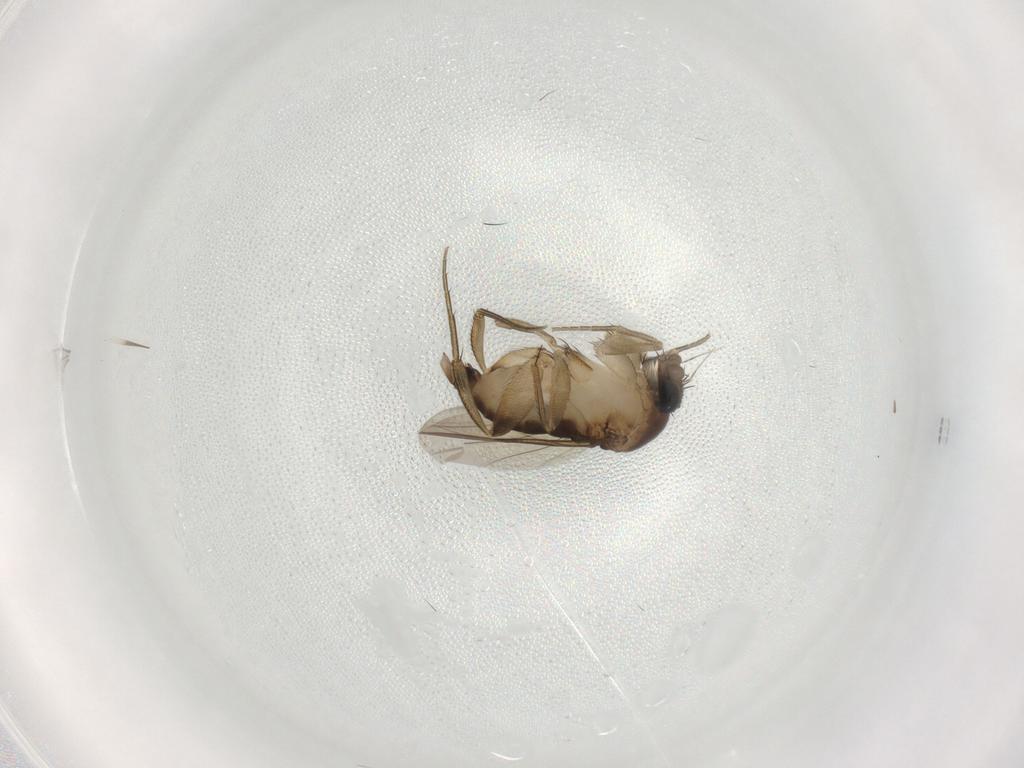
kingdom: Animalia
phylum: Arthropoda
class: Insecta
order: Diptera
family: Phoridae
